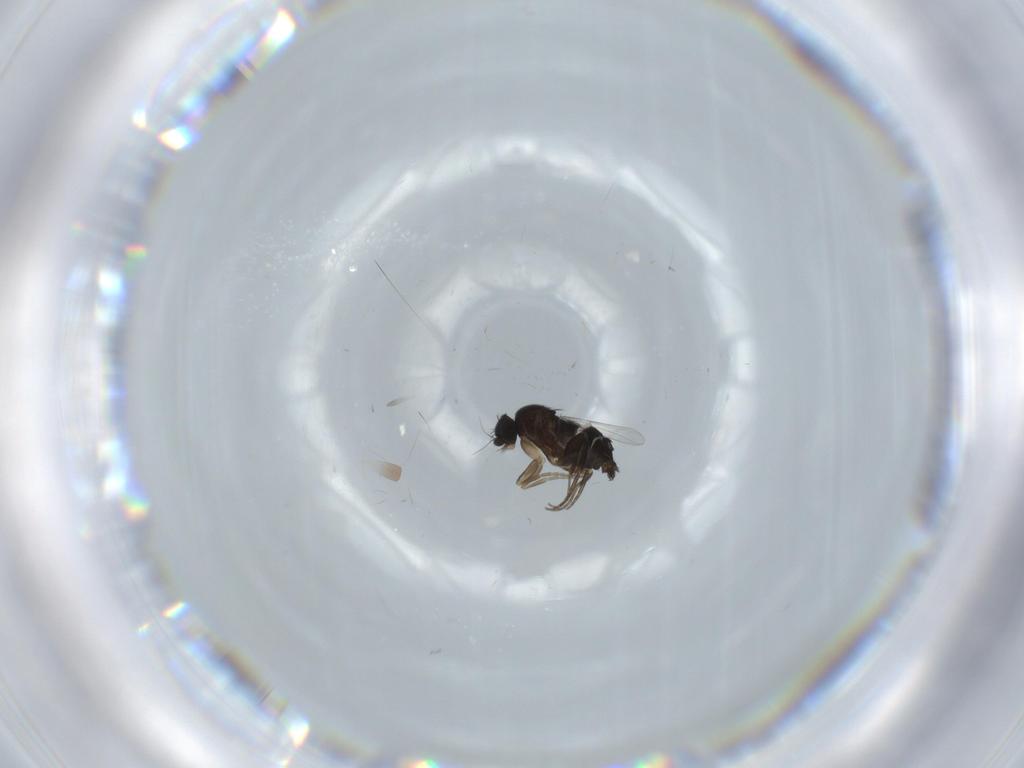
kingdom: Animalia
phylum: Arthropoda
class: Insecta
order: Diptera
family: Phoridae
